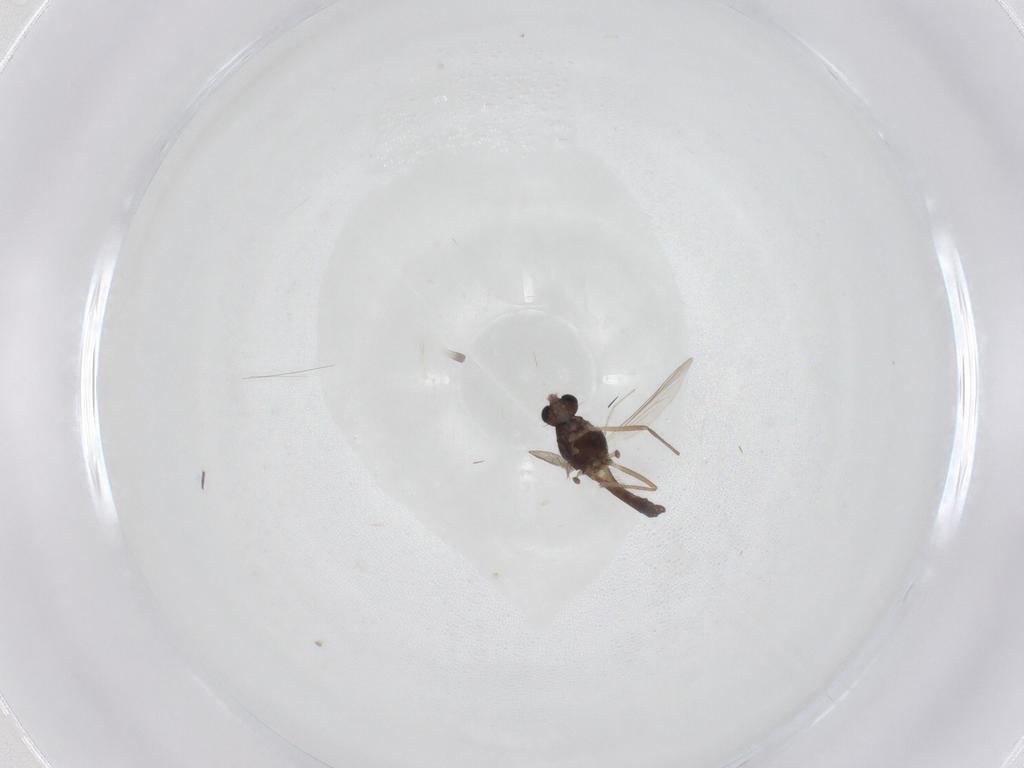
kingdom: Animalia
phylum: Arthropoda
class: Insecta
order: Diptera
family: Chironomidae
